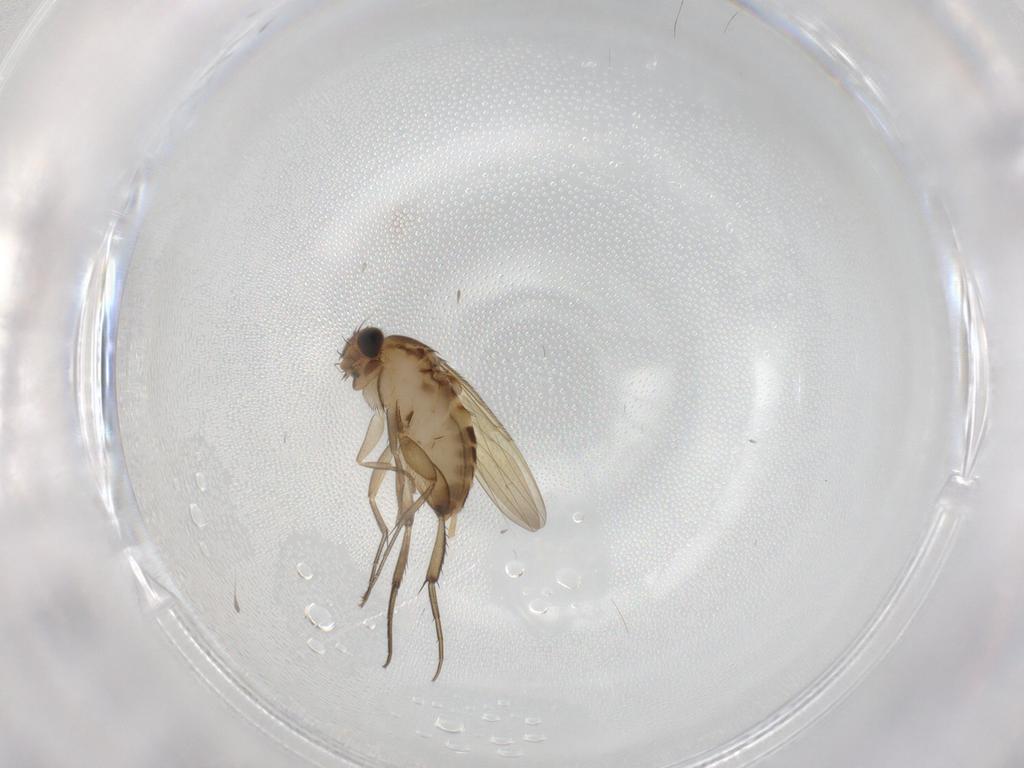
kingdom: Animalia
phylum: Arthropoda
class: Insecta
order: Diptera
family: Phoridae
